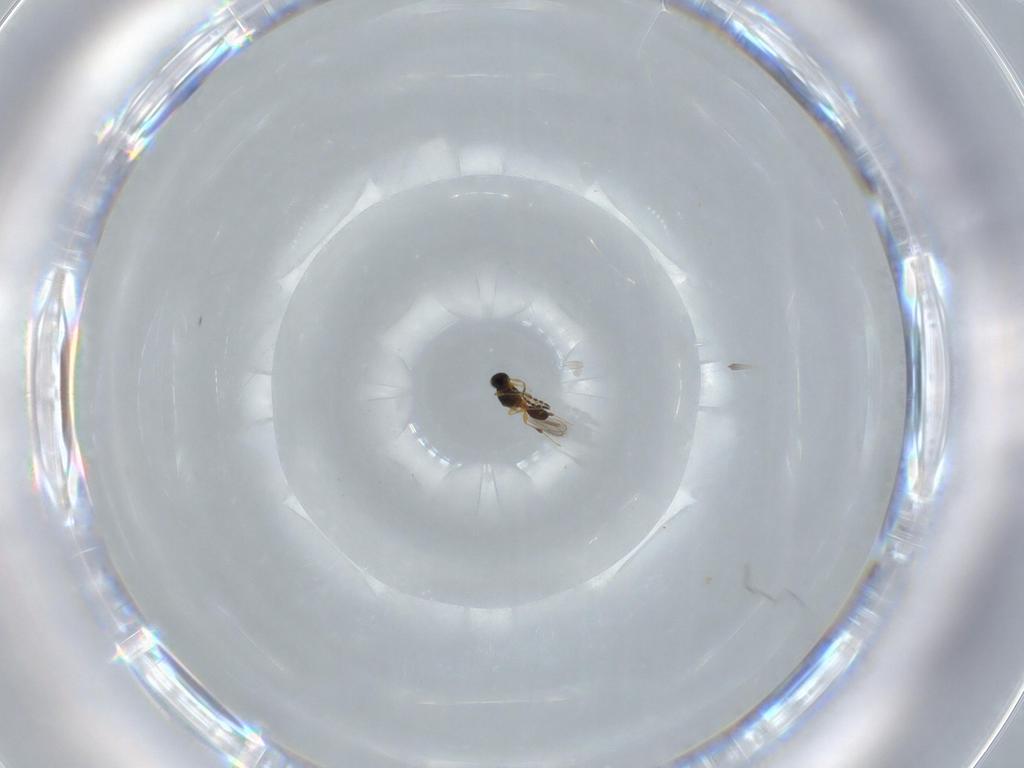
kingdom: Animalia
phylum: Arthropoda
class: Insecta
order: Hymenoptera
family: Platygastridae
